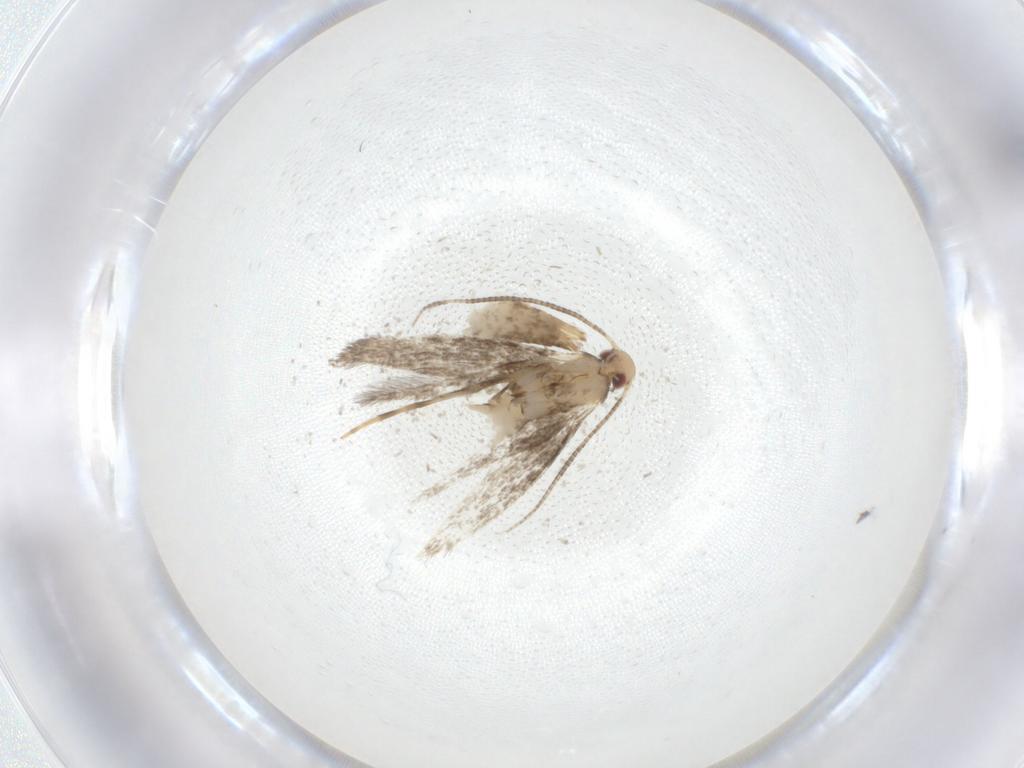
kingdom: Animalia
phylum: Arthropoda
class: Insecta
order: Lepidoptera
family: Gracillariidae
